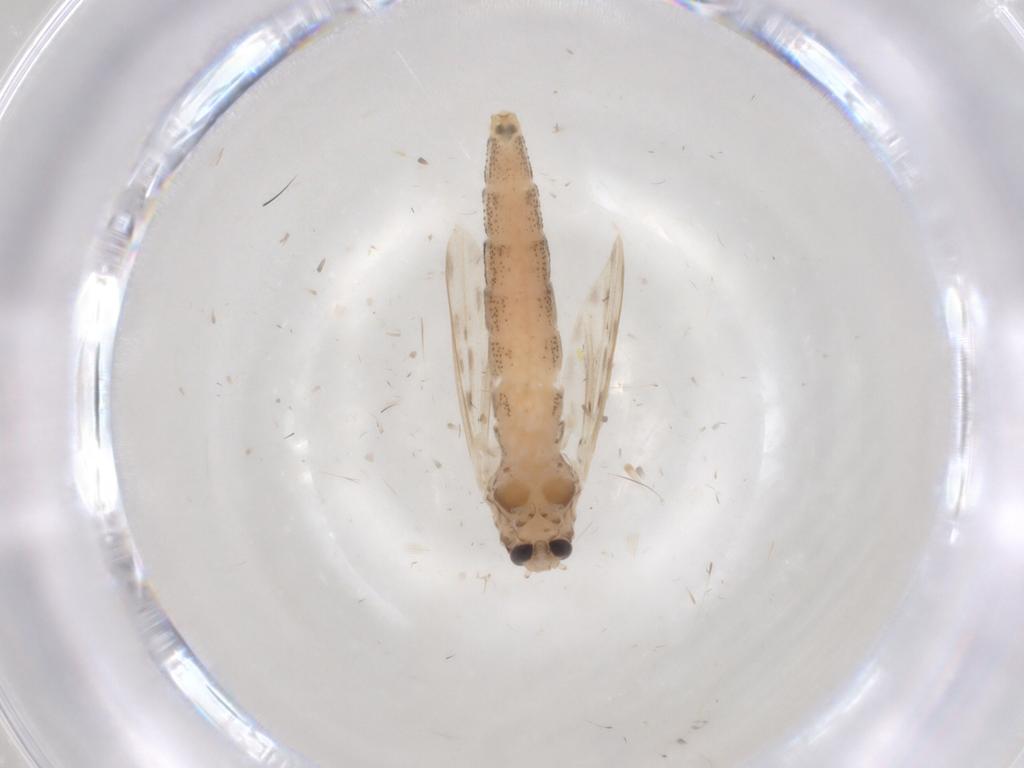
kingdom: Animalia
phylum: Arthropoda
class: Insecta
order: Diptera
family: Chaoboridae
